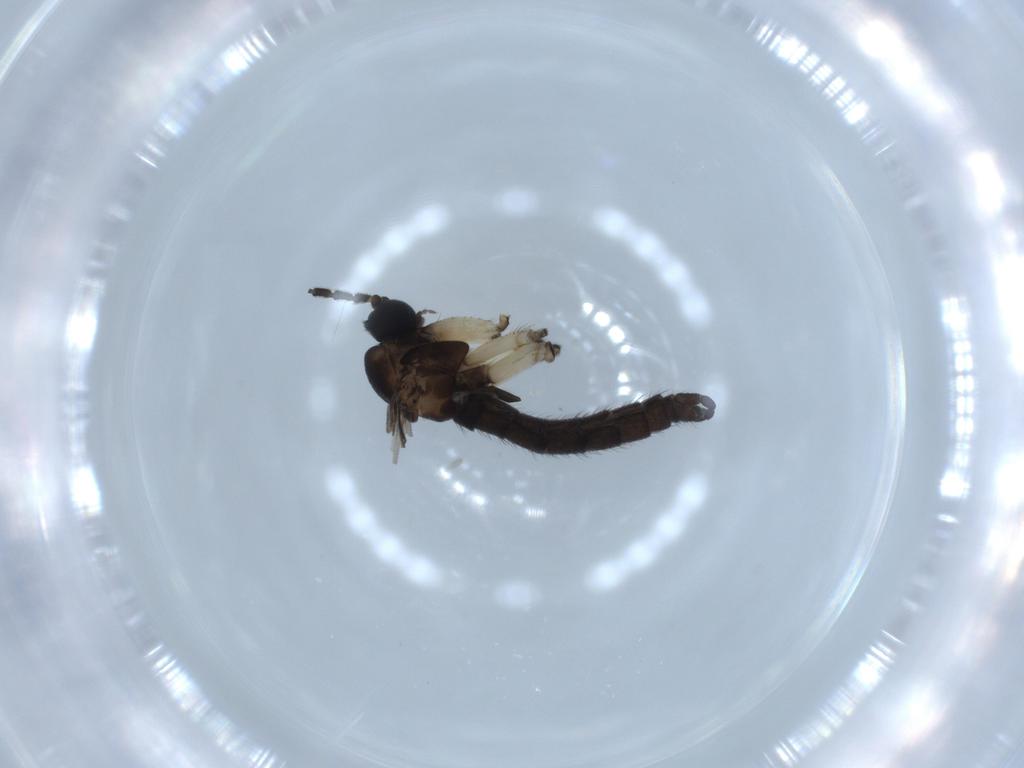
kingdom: Animalia
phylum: Arthropoda
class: Insecta
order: Diptera
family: Sciaridae
